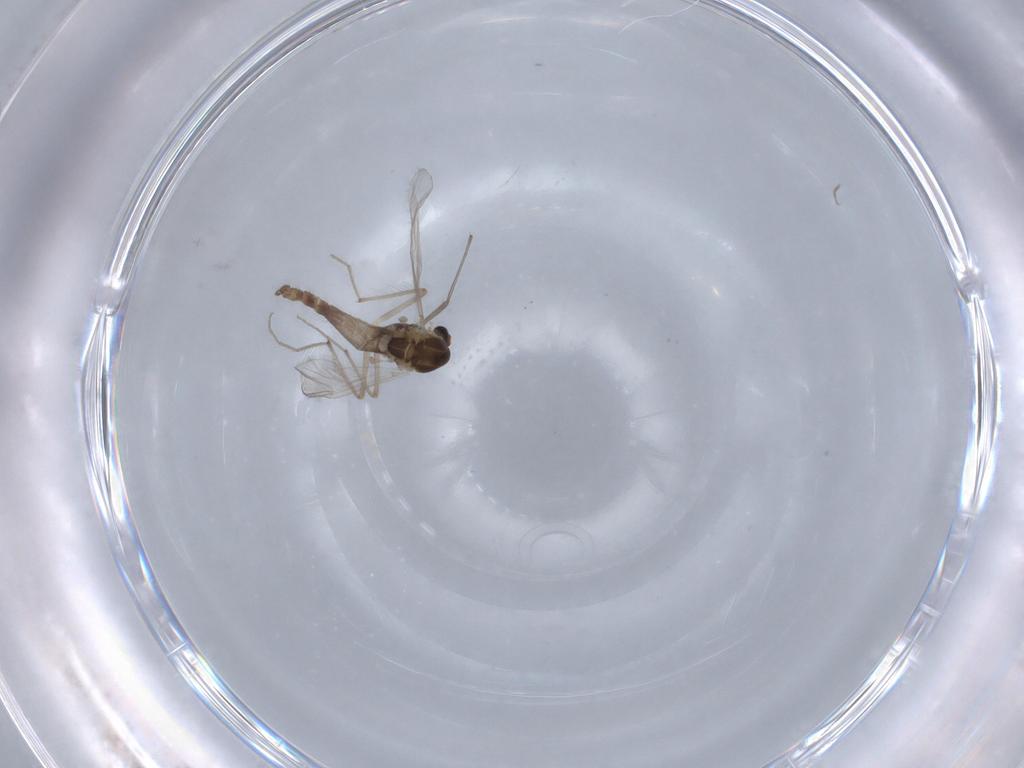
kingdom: Animalia
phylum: Arthropoda
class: Insecta
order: Diptera
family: Chironomidae
